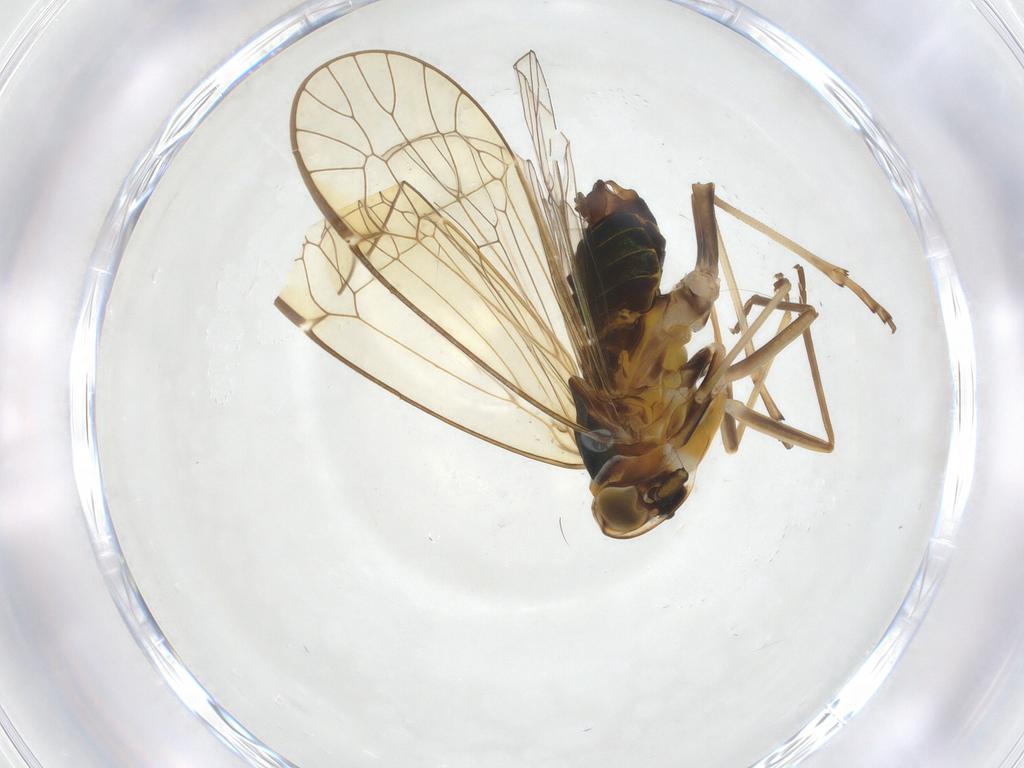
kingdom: Animalia
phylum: Arthropoda
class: Insecta
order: Hemiptera
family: Kinnaridae
